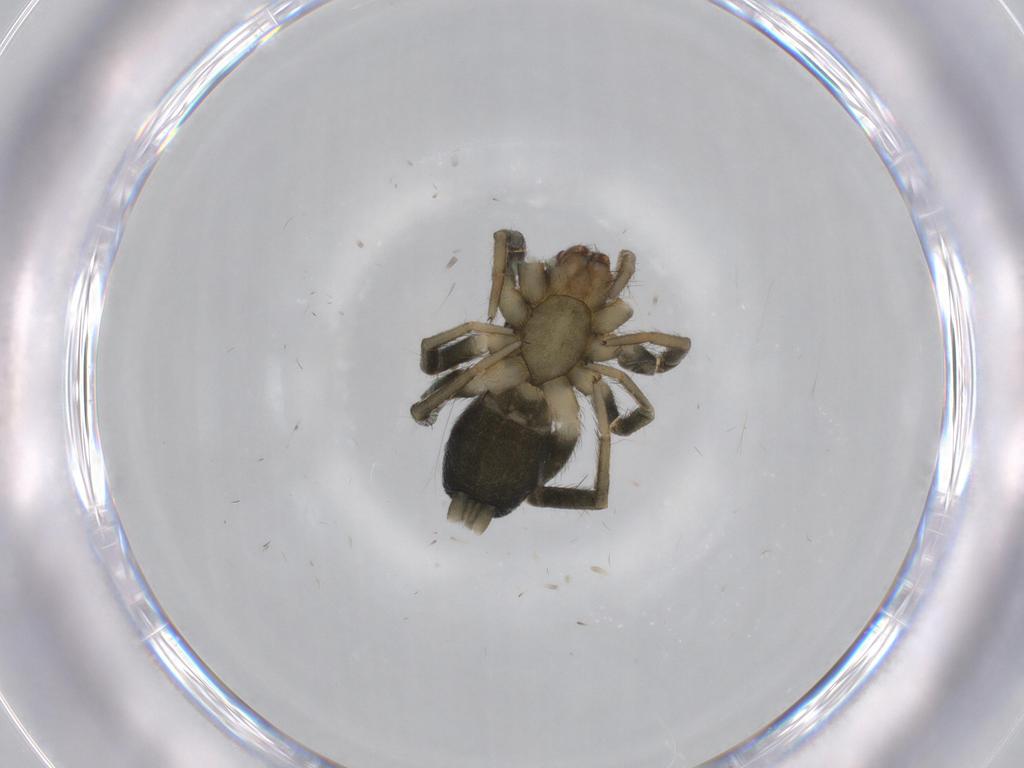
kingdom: Animalia
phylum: Arthropoda
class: Arachnida
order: Araneae
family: Gnaphosidae
